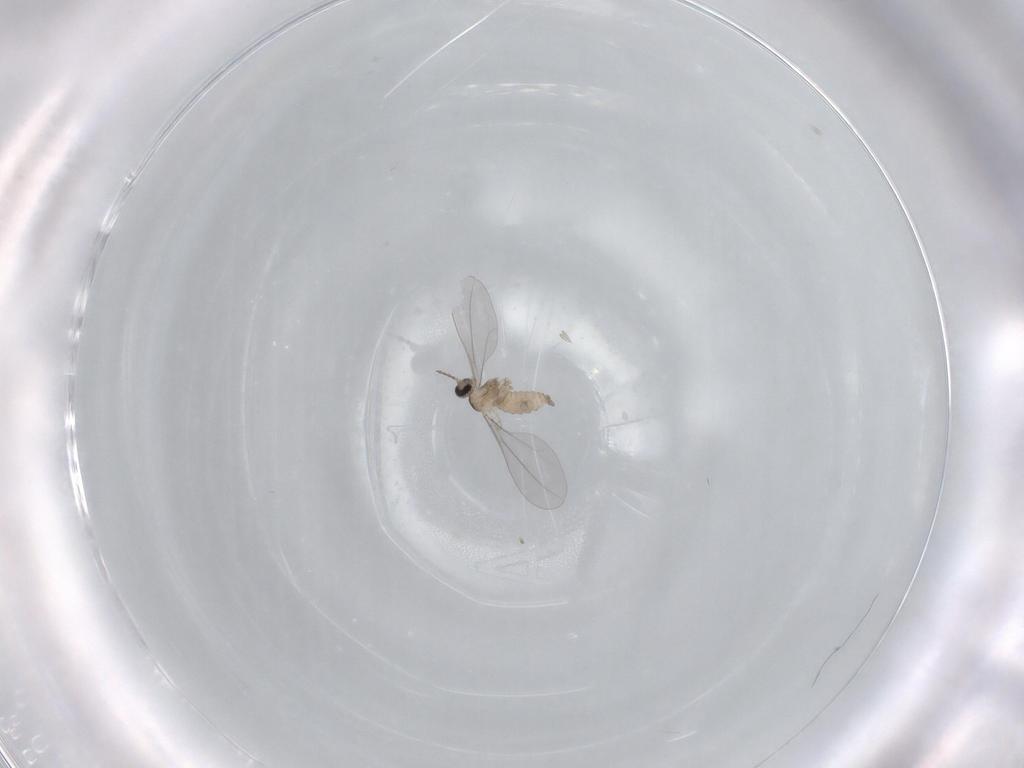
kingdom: Animalia
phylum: Arthropoda
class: Insecta
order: Diptera
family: Cecidomyiidae
